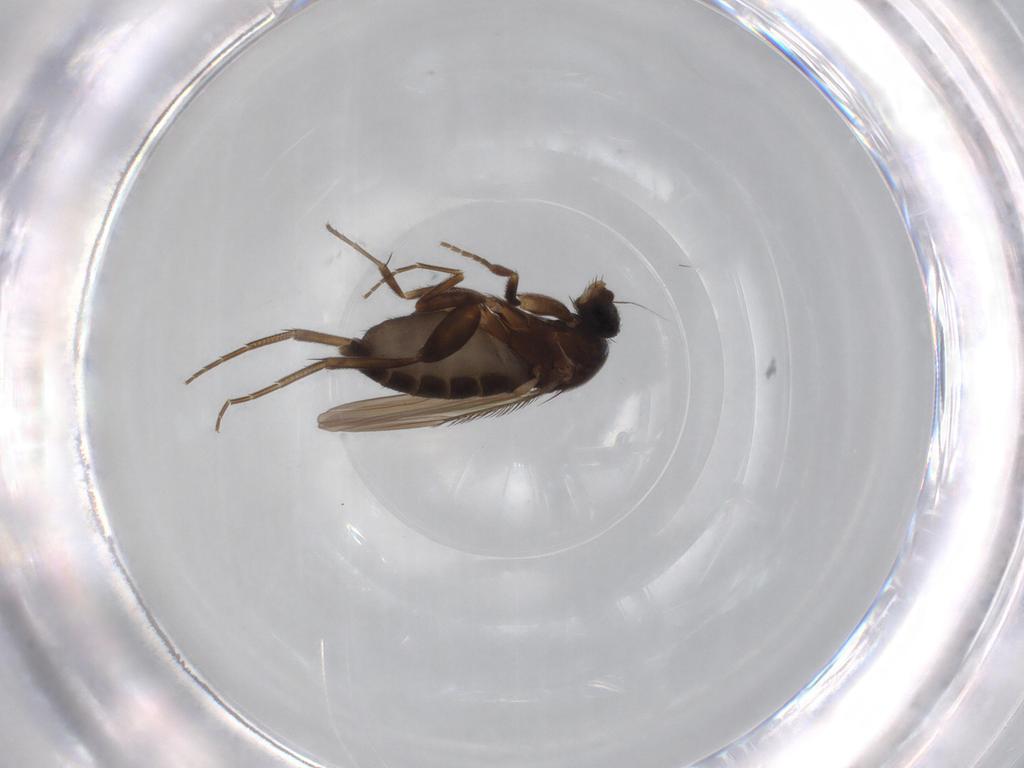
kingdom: Animalia
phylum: Arthropoda
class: Insecta
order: Diptera
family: Phoridae
